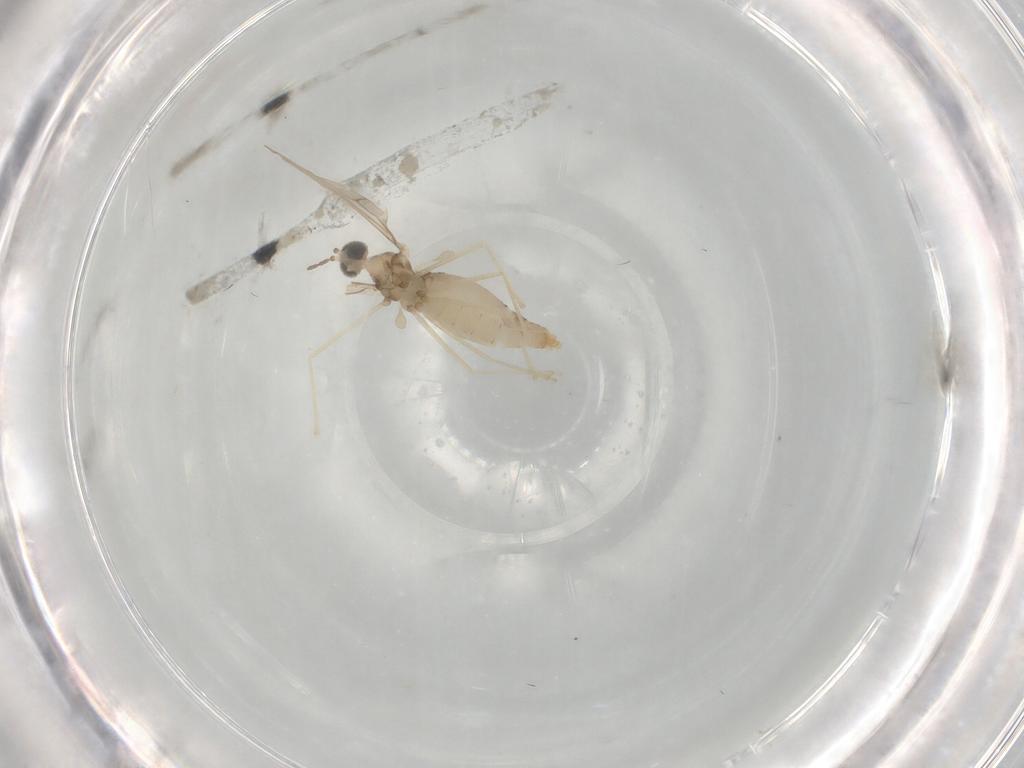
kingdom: Animalia
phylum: Arthropoda
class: Insecta
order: Diptera
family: Cecidomyiidae
